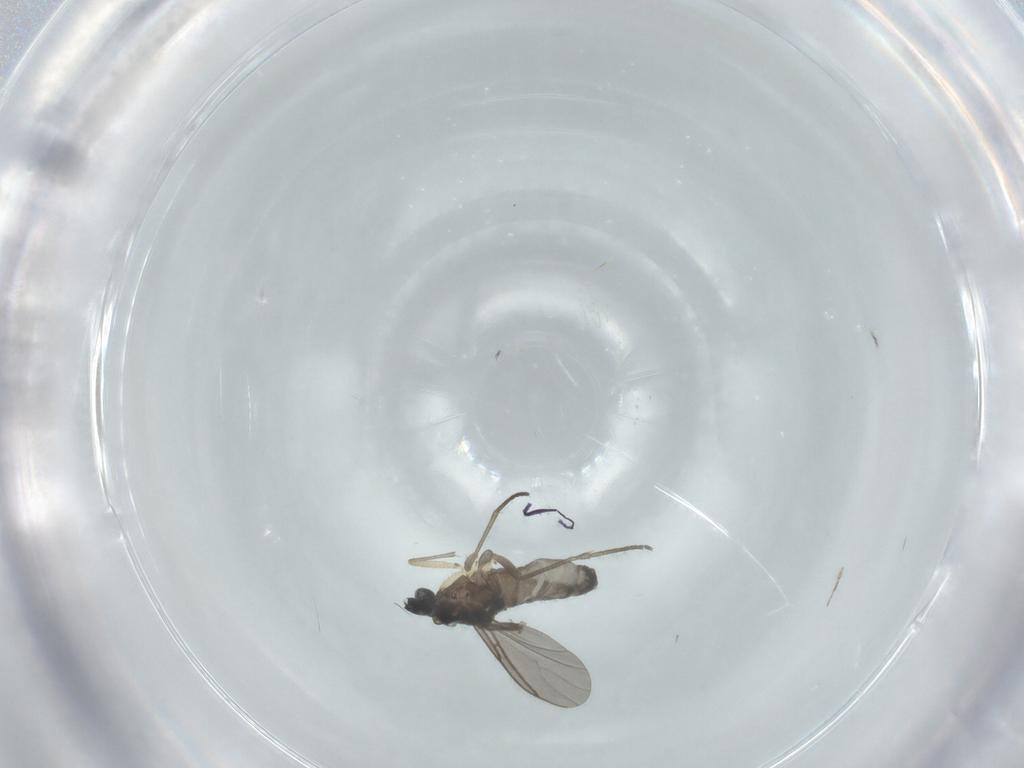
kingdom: Animalia
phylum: Arthropoda
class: Insecta
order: Diptera
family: Sciaridae
